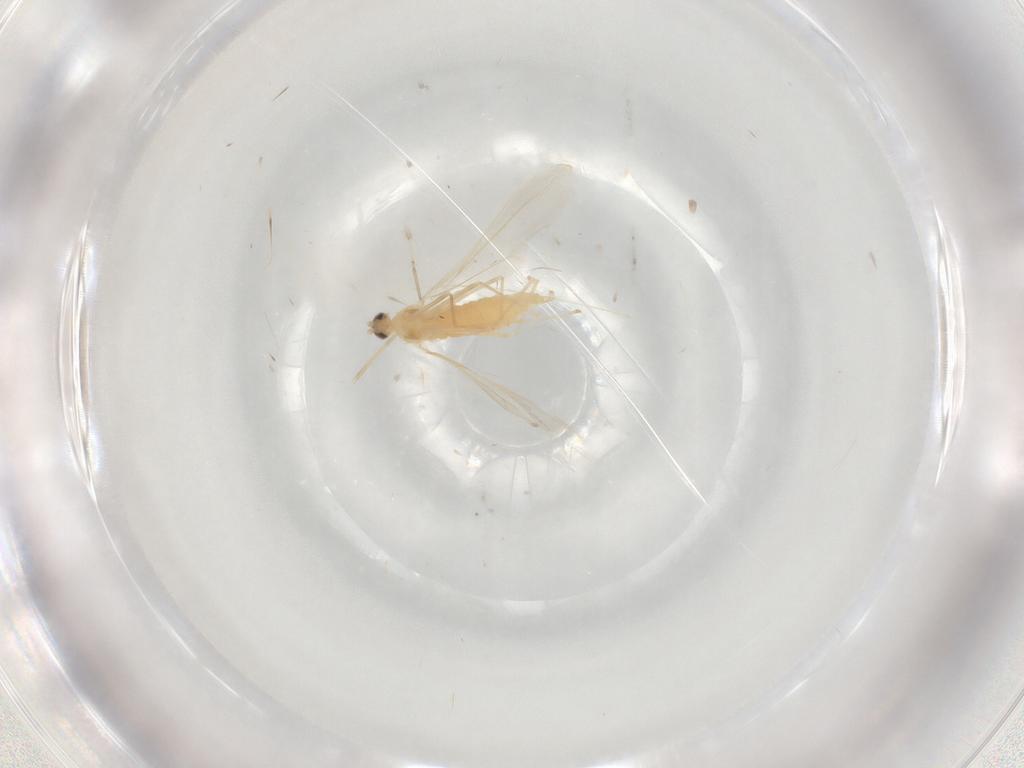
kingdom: Animalia
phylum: Arthropoda
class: Insecta
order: Diptera
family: Cecidomyiidae
